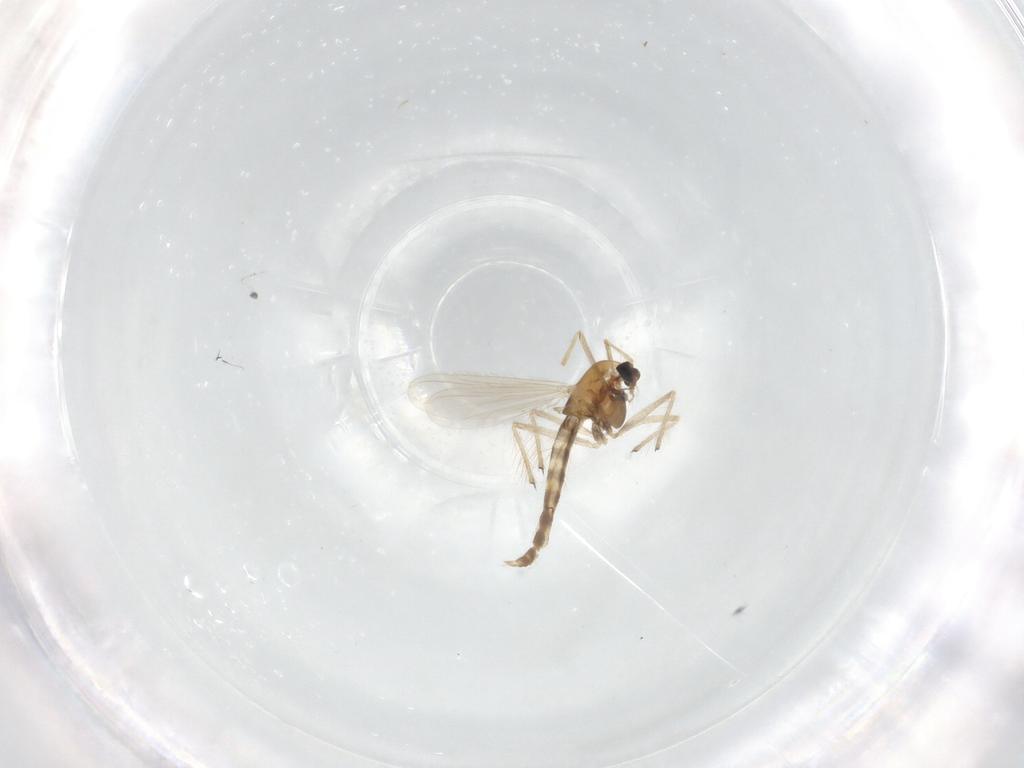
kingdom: Animalia
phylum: Arthropoda
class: Insecta
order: Diptera
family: Chironomidae
